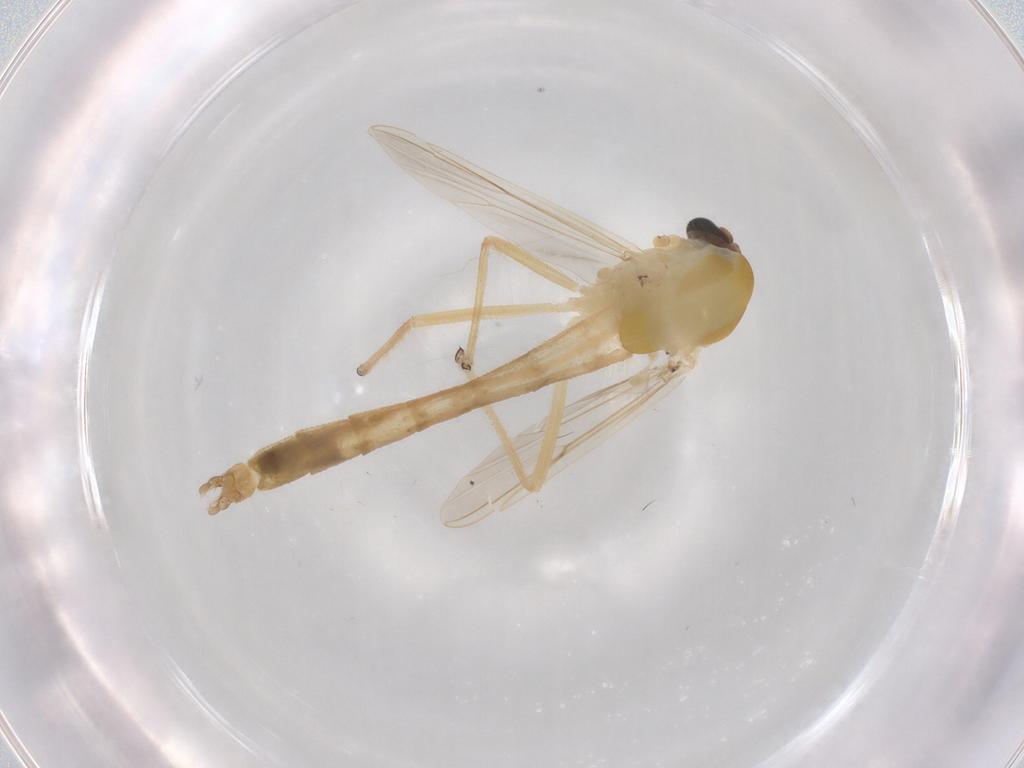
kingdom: Animalia
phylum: Arthropoda
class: Insecta
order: Diptera
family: Chironomidae
